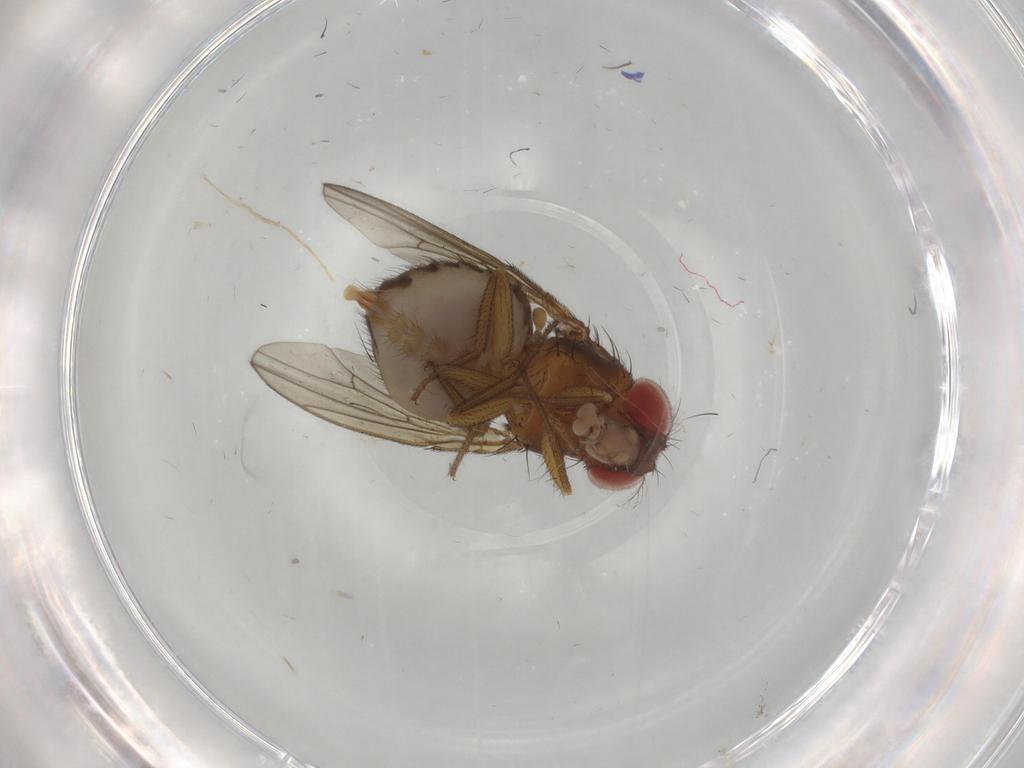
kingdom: Animalia
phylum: Arthropoda
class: Insecta
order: Diptera
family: Drosophilidae
